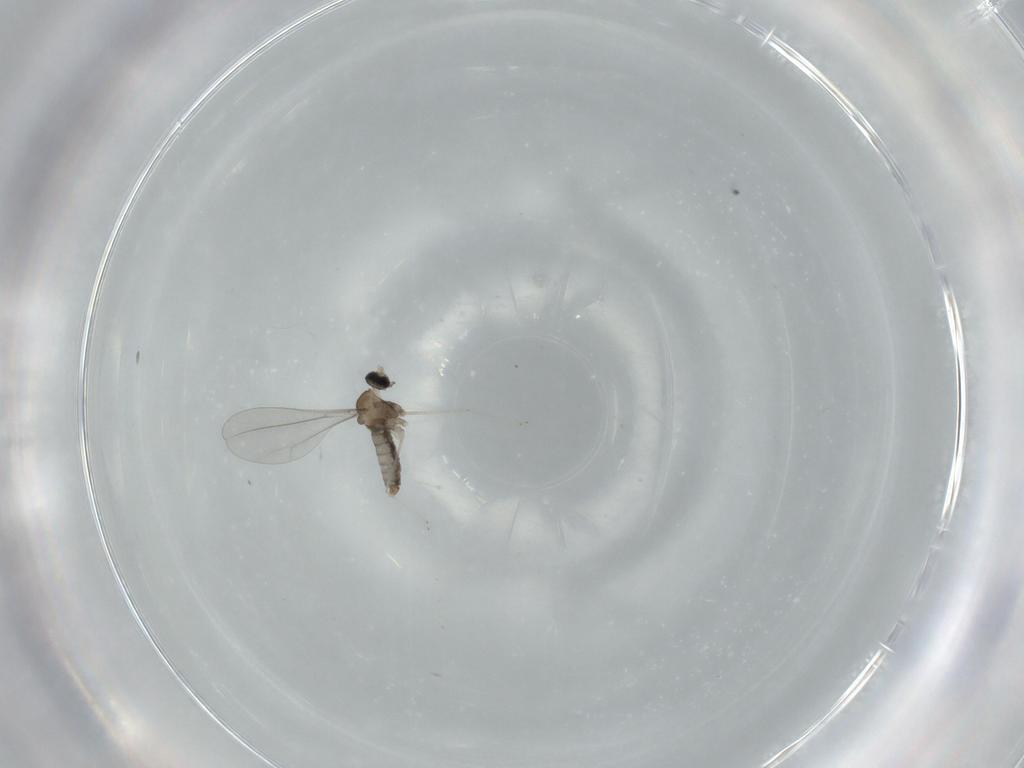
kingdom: Animalia
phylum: Arthropoda
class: Insecta
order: Diptera
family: Cecidomyiidae
